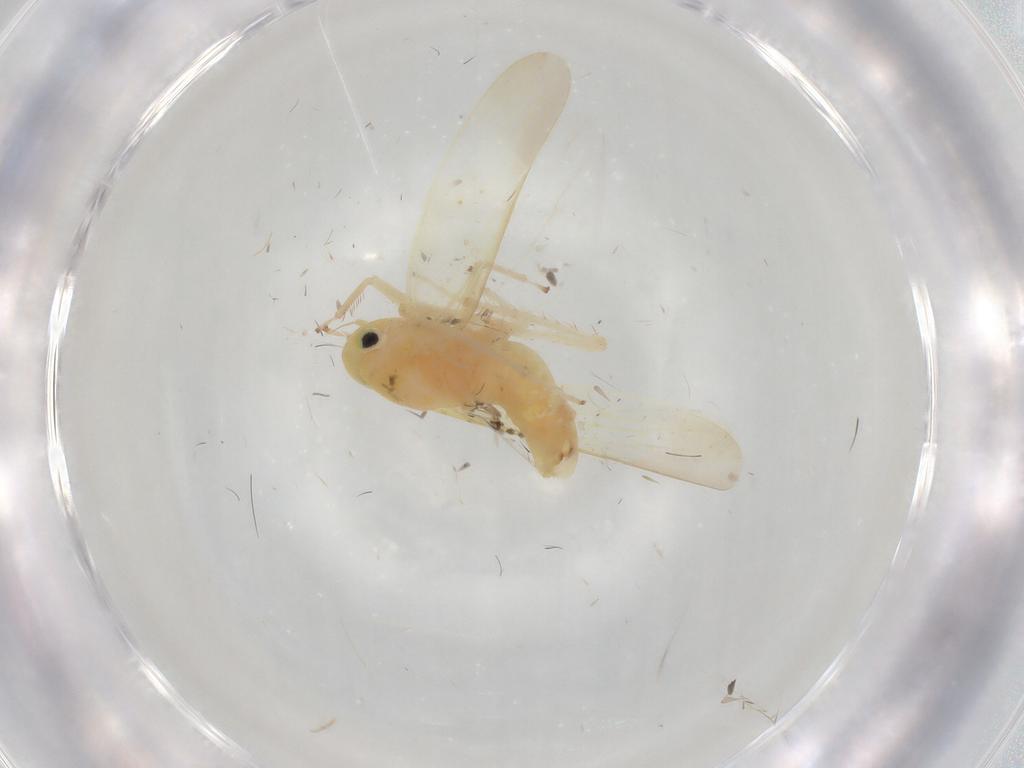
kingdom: Animalia
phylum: Arthropoda
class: Insecta
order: Hemiptera
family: Cicadellidae
